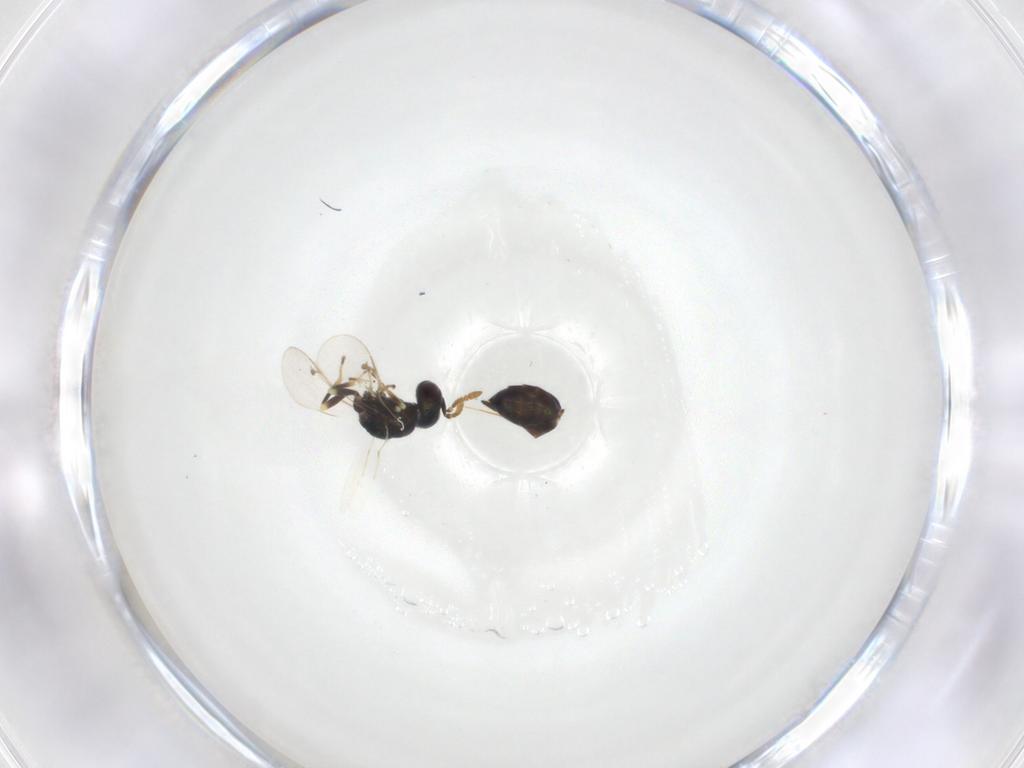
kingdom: Animalia
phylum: Arthropoda
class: Insecta
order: Hymenoptera
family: Pirenidae
